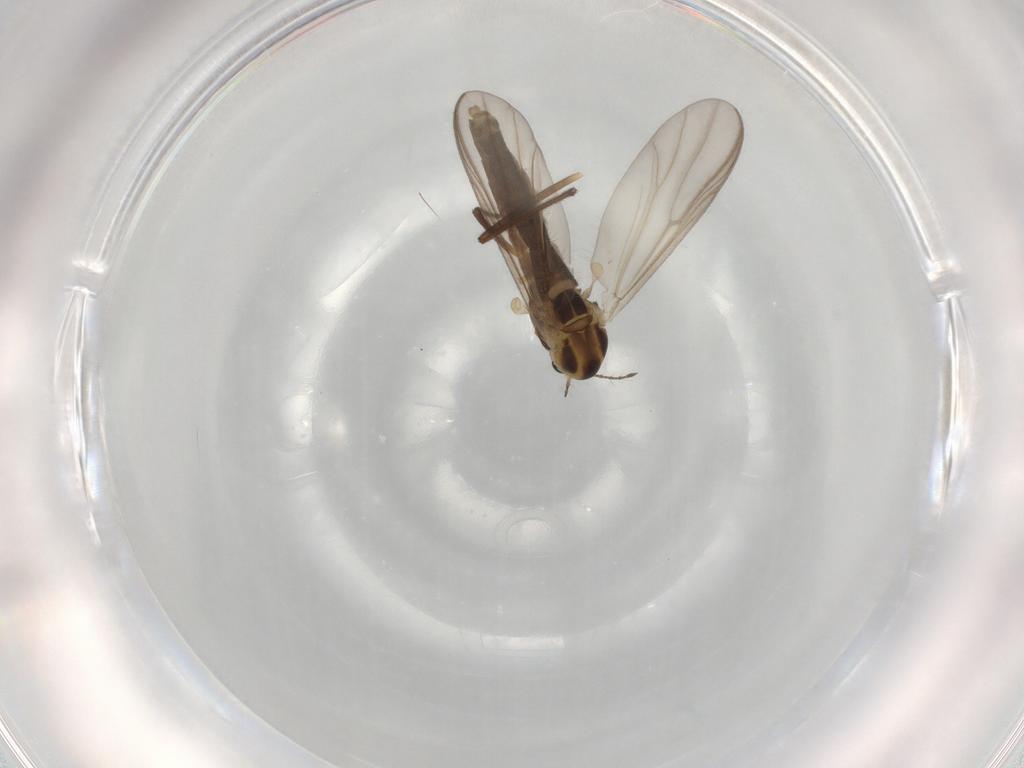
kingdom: Animalia
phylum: Arthropoda
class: Insecta
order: Diptera
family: Chironomidae
